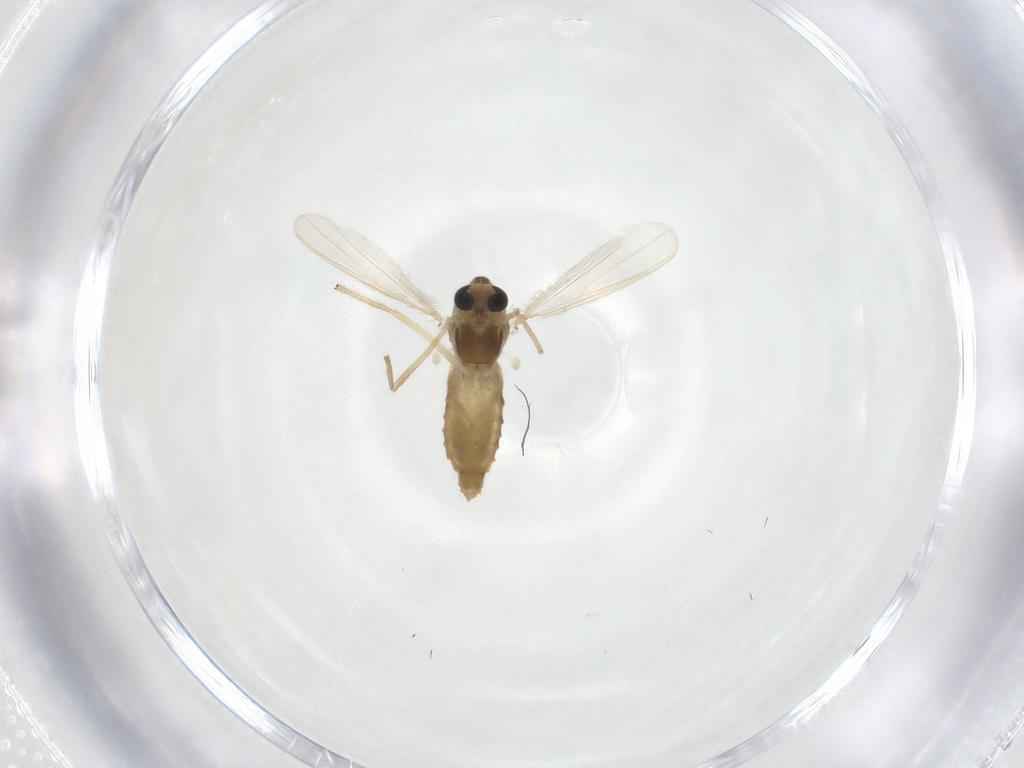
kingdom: Animalia
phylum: Arthropoda
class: Insecta
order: Diptera
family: Chironomidae
